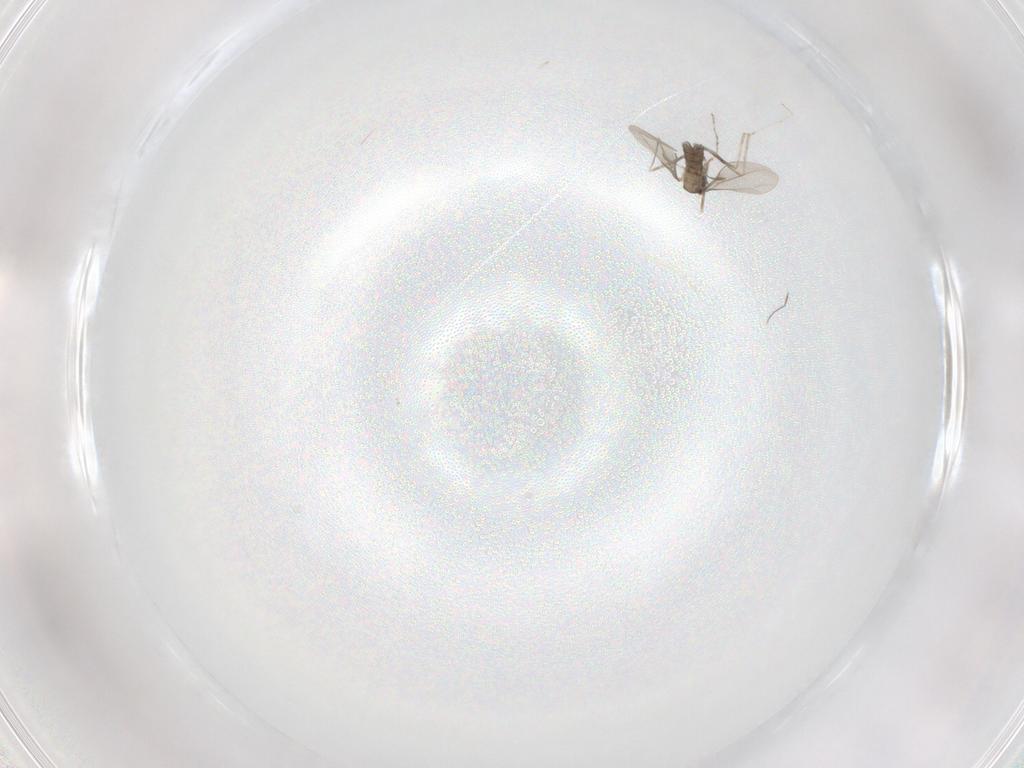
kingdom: Animalia
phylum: Arthropoda
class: Insecta
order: Diptera
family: Cecidomyiidae
